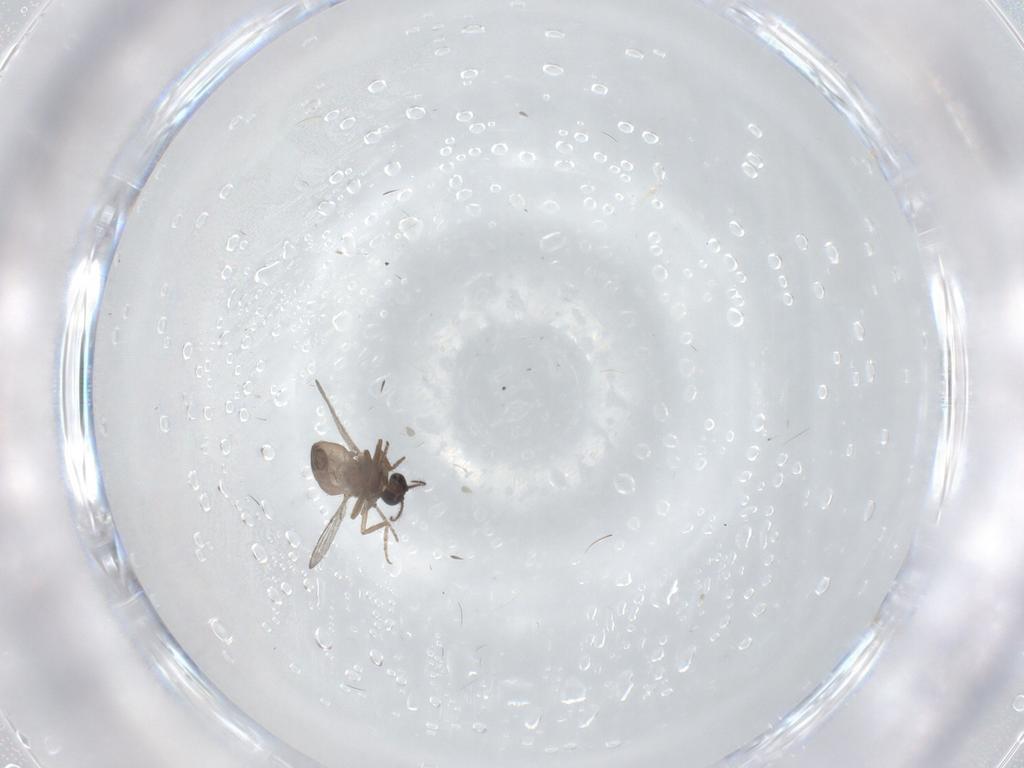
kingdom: Animalia
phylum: Arthropoda
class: Insecta
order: Diptera
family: Ceratopogonidae
